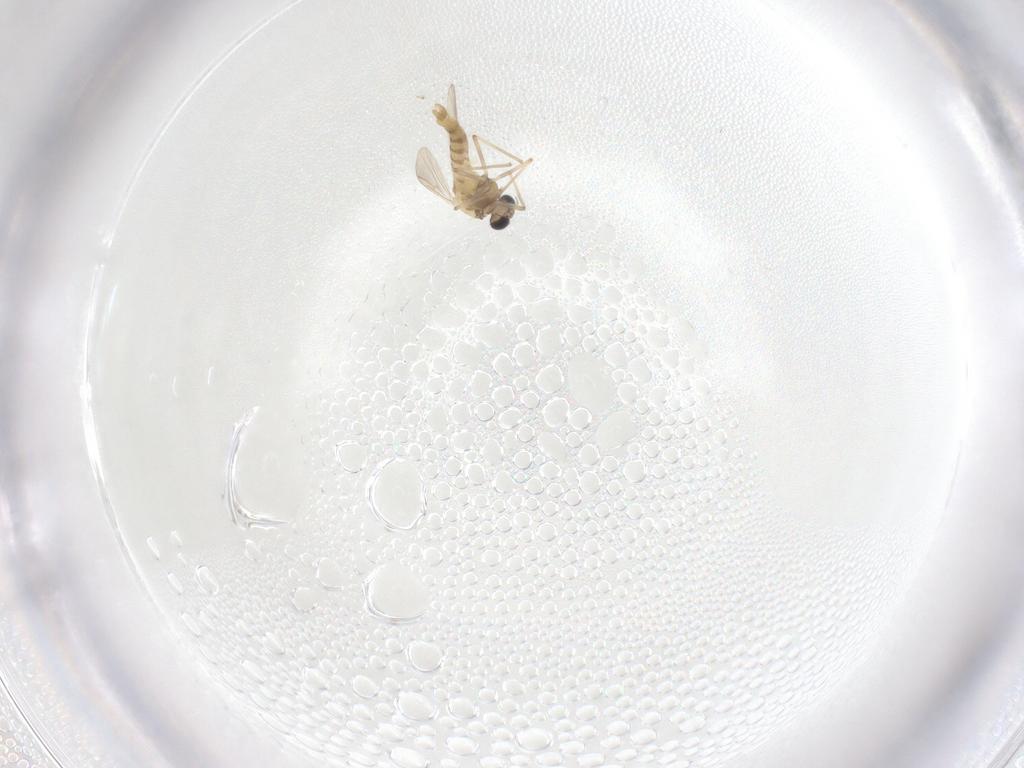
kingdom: Animalia
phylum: Arthropoda
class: Insecta
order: Diptera
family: Chironomidae
